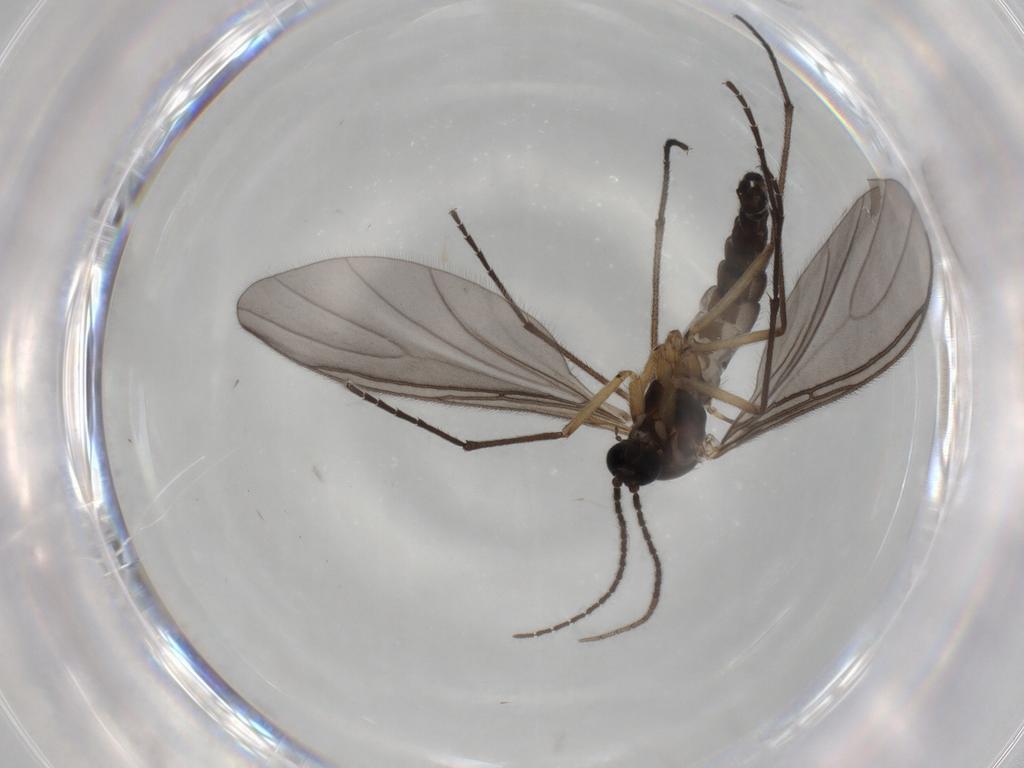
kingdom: Animalia
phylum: Arthropoda
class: Insecta
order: Diptera
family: Sciaridae
